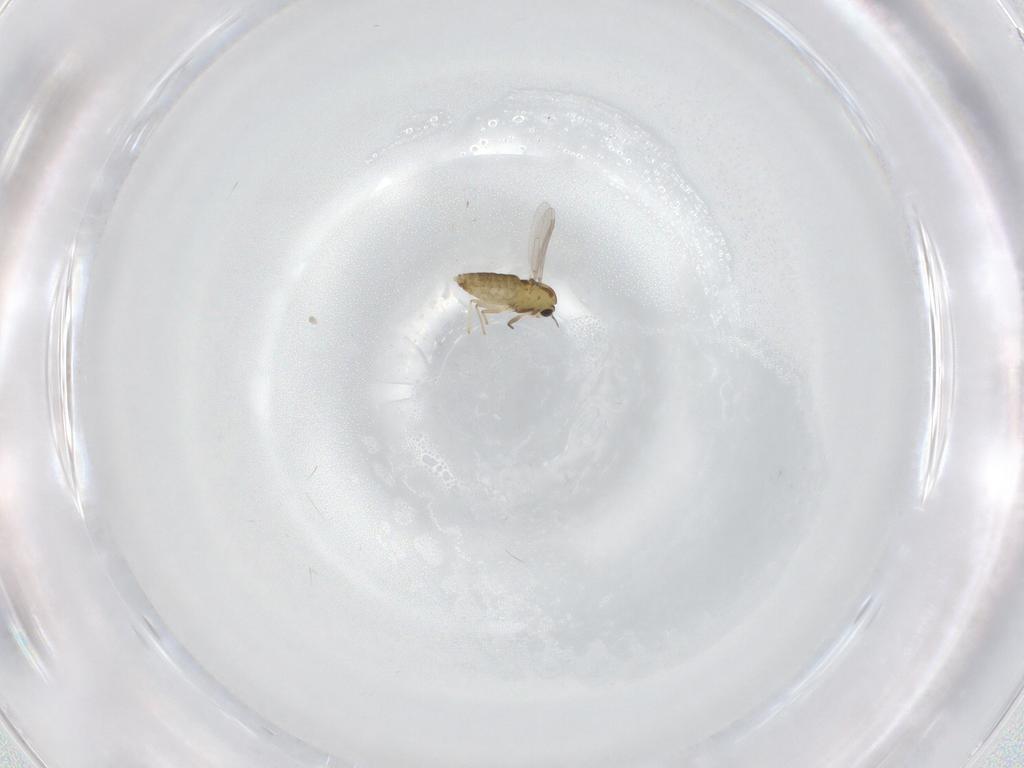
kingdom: Animalia
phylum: Arthropoda
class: Insecta
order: Diptera
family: Chironomidae
